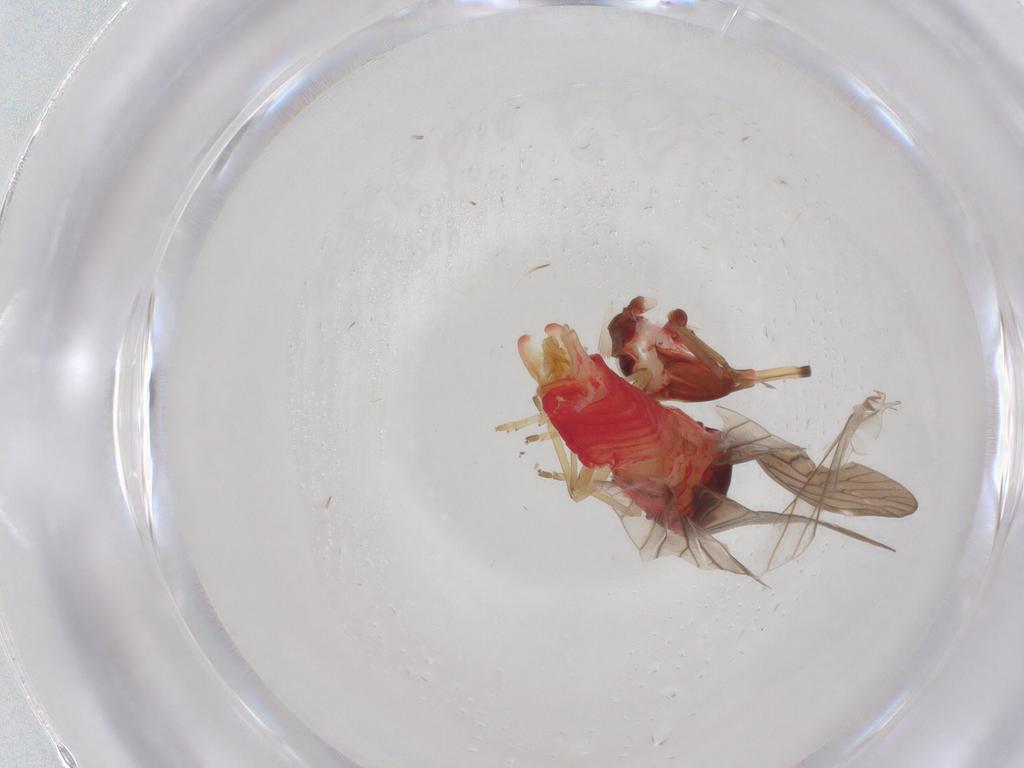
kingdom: Animalia
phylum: Arthropoda
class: Insecta
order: Hemiptera
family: Derbidae
